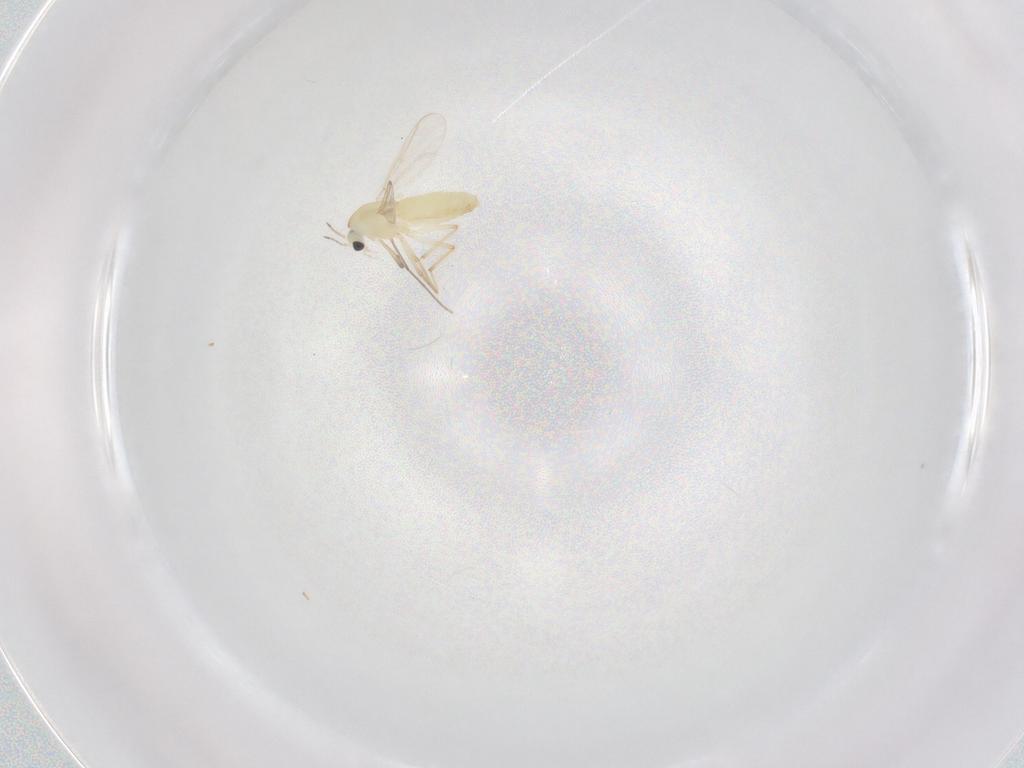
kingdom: Animalia
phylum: Arthropoda
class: Insecta
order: Diptera
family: Chironomidae
